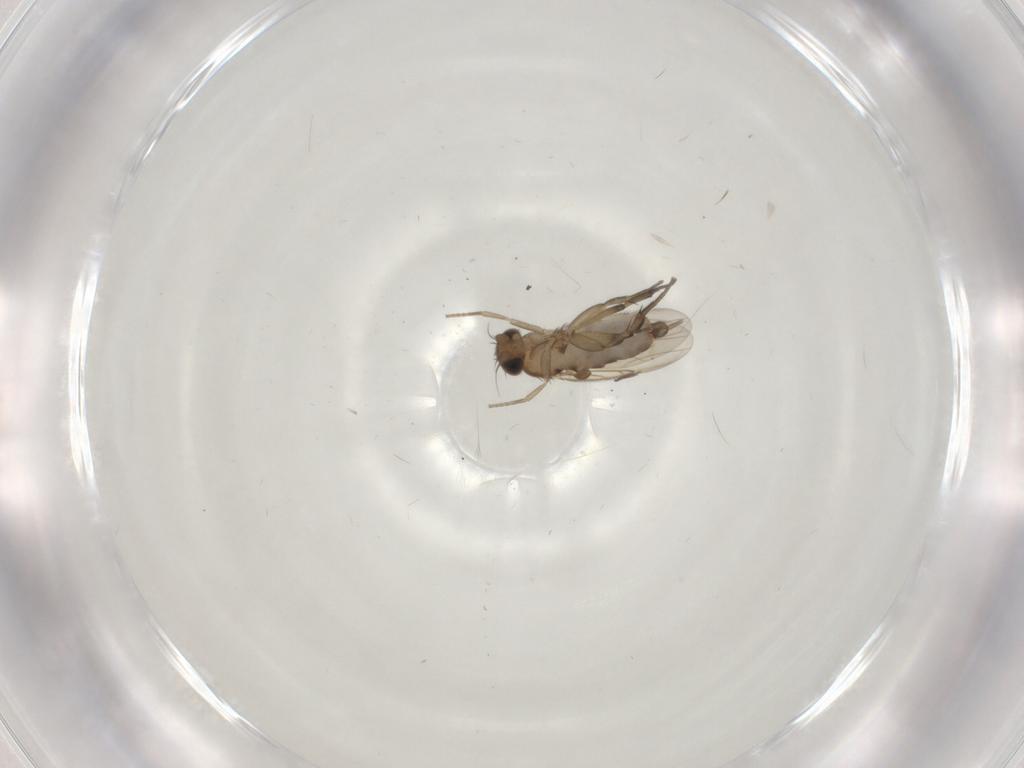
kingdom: Animalia
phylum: Arthropoda
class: Insecta
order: Diptera
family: Phoridae
